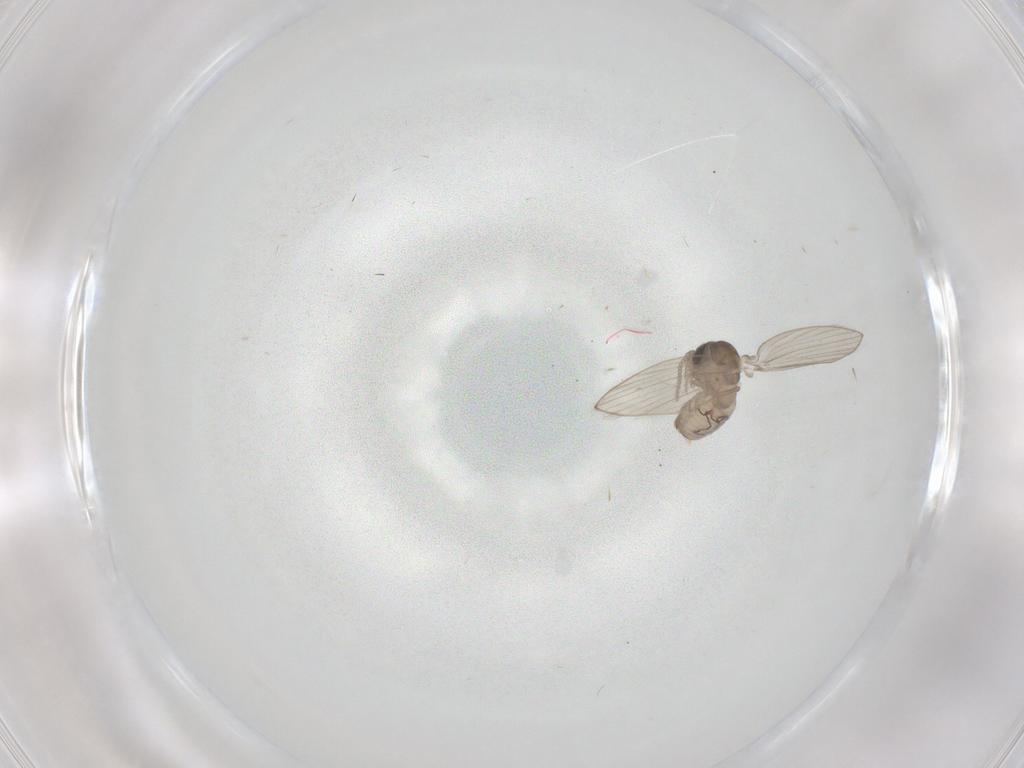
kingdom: Animalia
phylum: Arthropoda
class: Insecta
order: Diptera
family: Psychodidae
